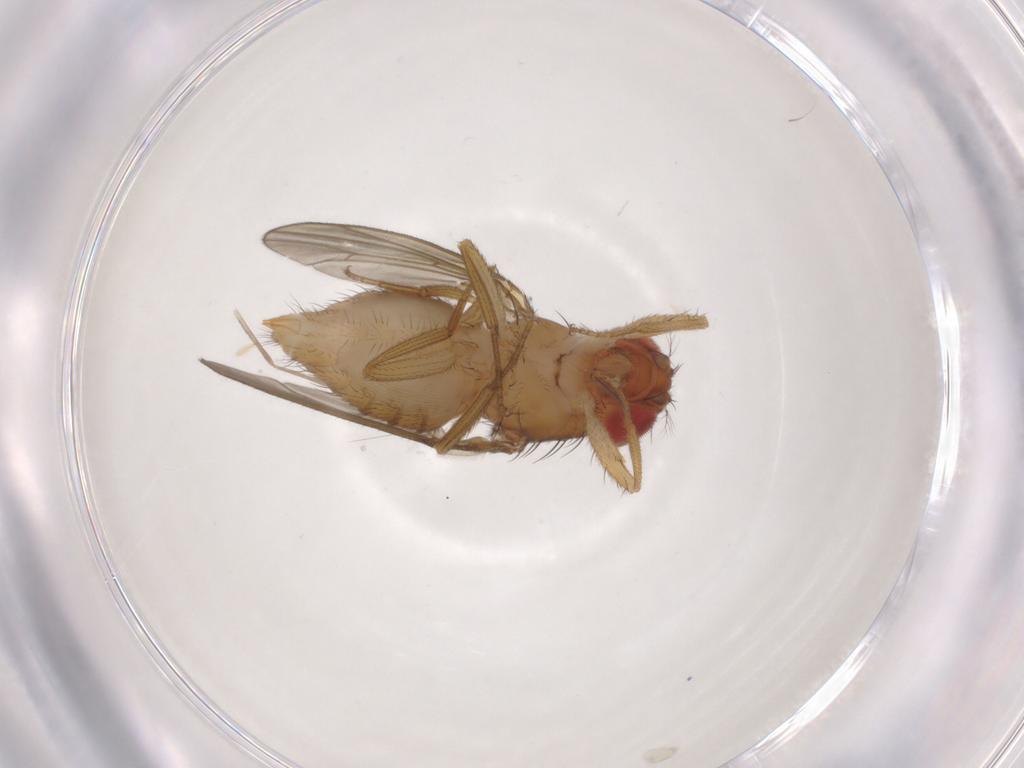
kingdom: Animalia
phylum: Arthropoda
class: Insecta
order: Diptera
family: Drosophilidae
